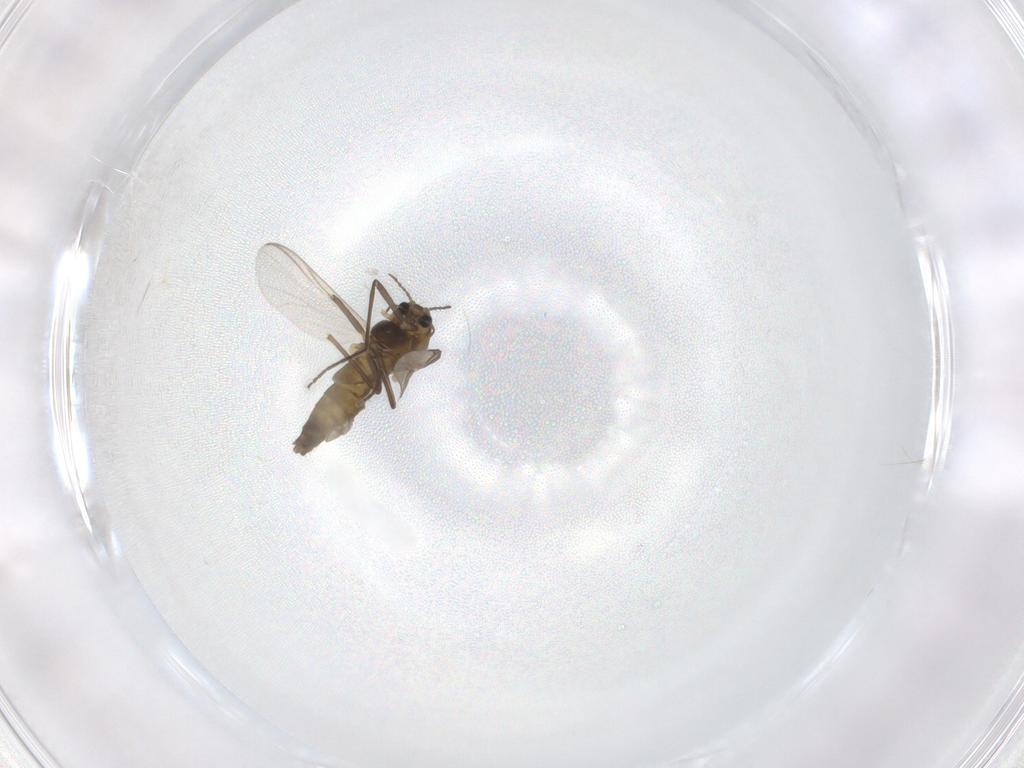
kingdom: Animalia
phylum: Arthropoda
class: Insecta
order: Diptera
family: Chironomidae
